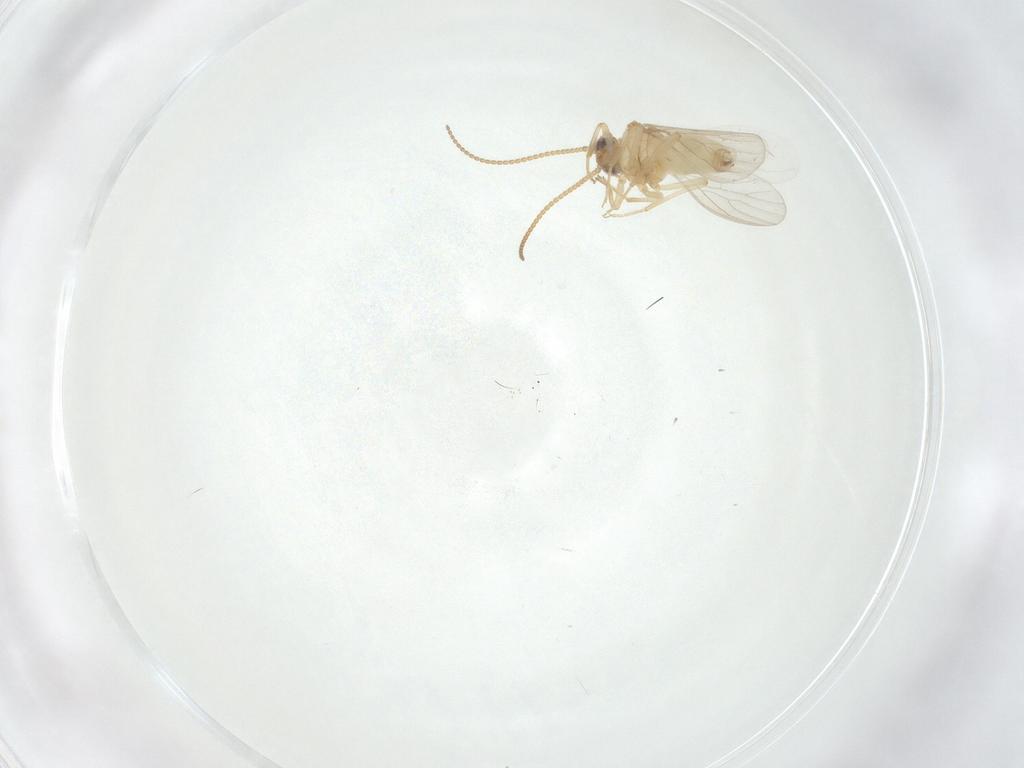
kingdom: Animalia
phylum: Arthropoda
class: Insecta
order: Neuroptera
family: Coniopterygidae
